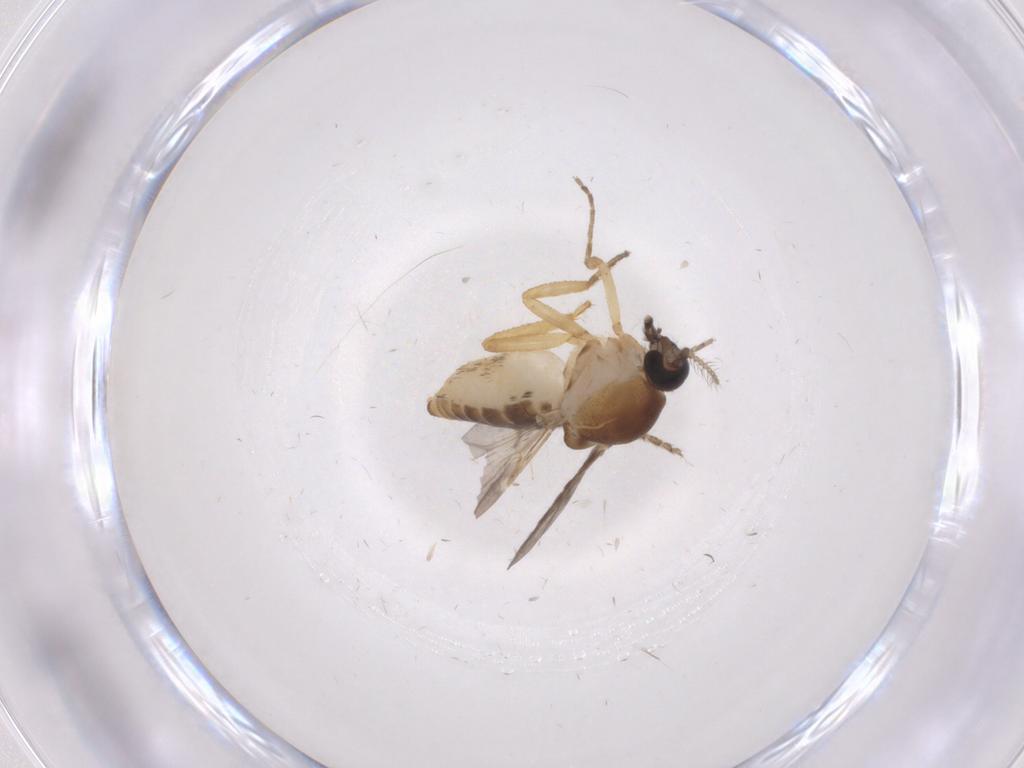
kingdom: Animalia
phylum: Arthropoda
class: Insecta
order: Diptera
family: Ceratopogonidae
